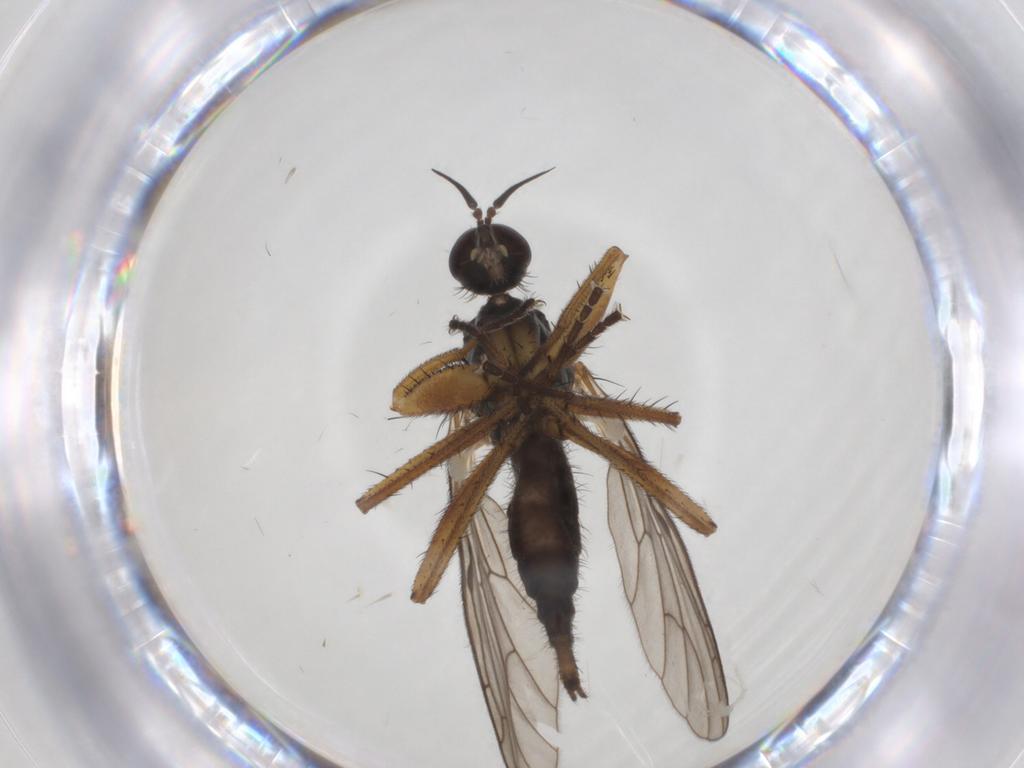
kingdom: Animalia
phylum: Arthropoda
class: Insecta
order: Diptera
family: Empididae
